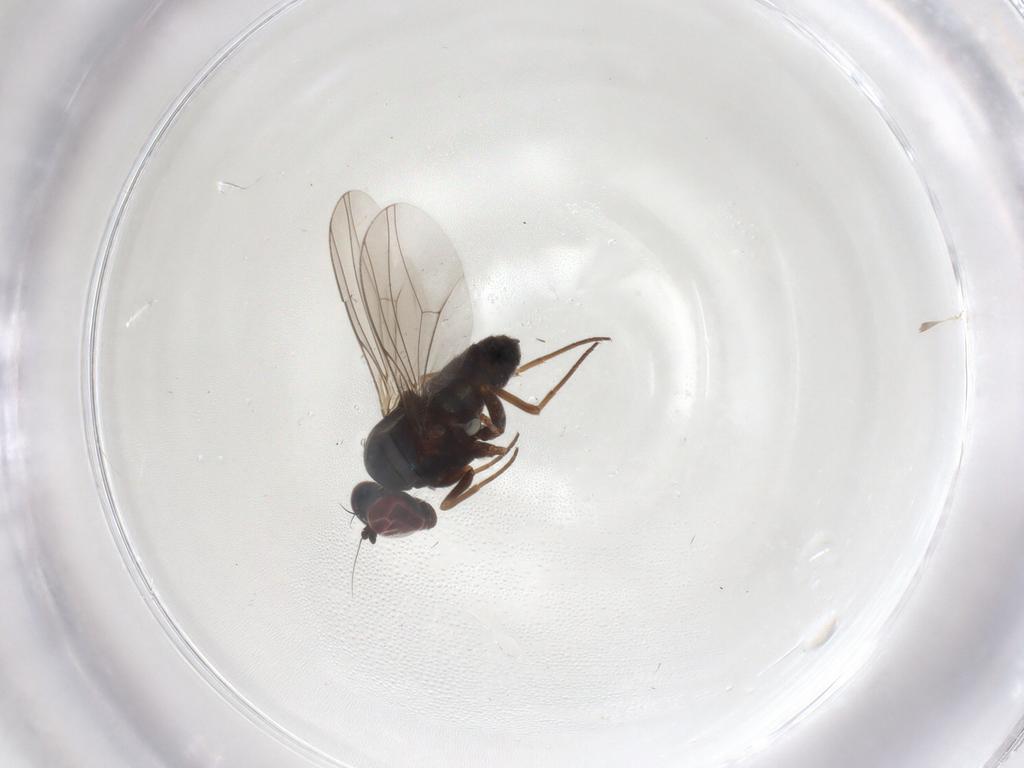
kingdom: Animalia
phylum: Arthropoda
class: Insecta
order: Diptera
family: Dolichopodidae
